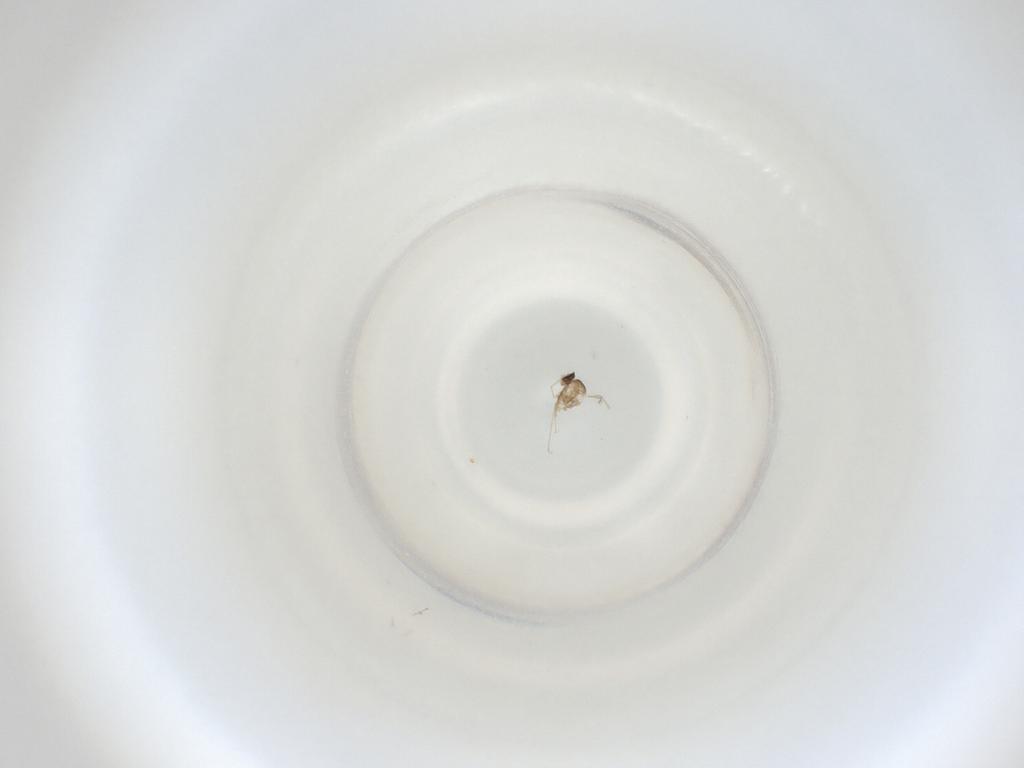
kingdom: Animalia
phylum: Arthropoda
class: Insecta
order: Diptera
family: Cecidomyiidae
